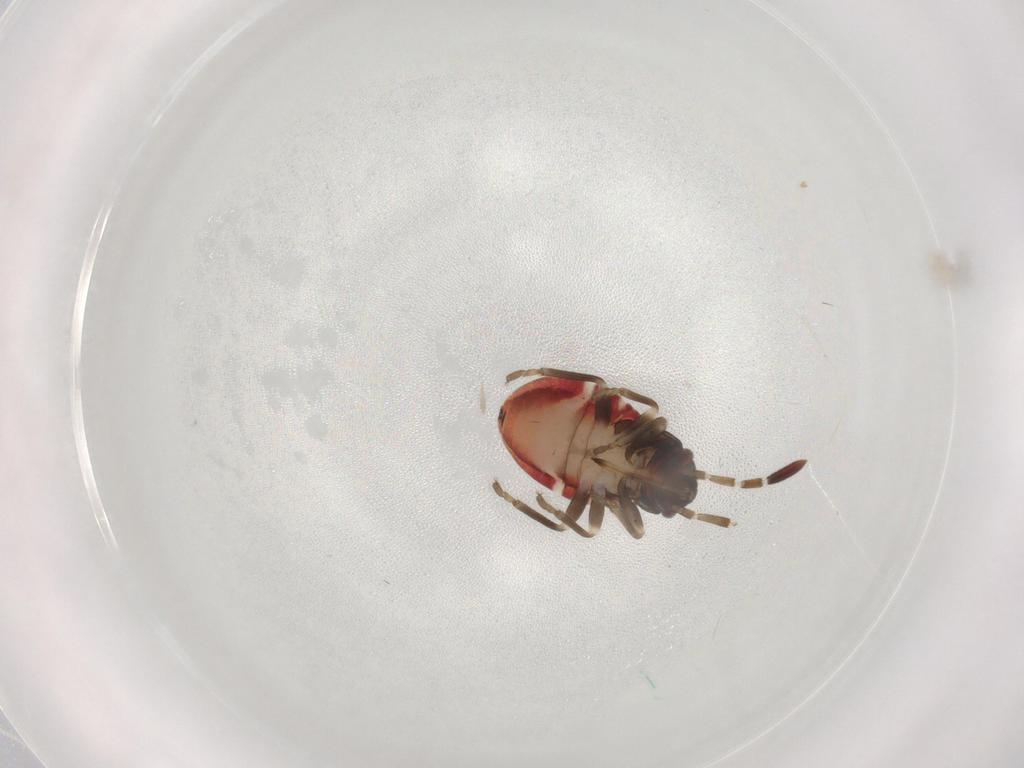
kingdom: Animalia
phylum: Arthropoda
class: Insecta
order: Hemiptera
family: Rhyparochromidae
